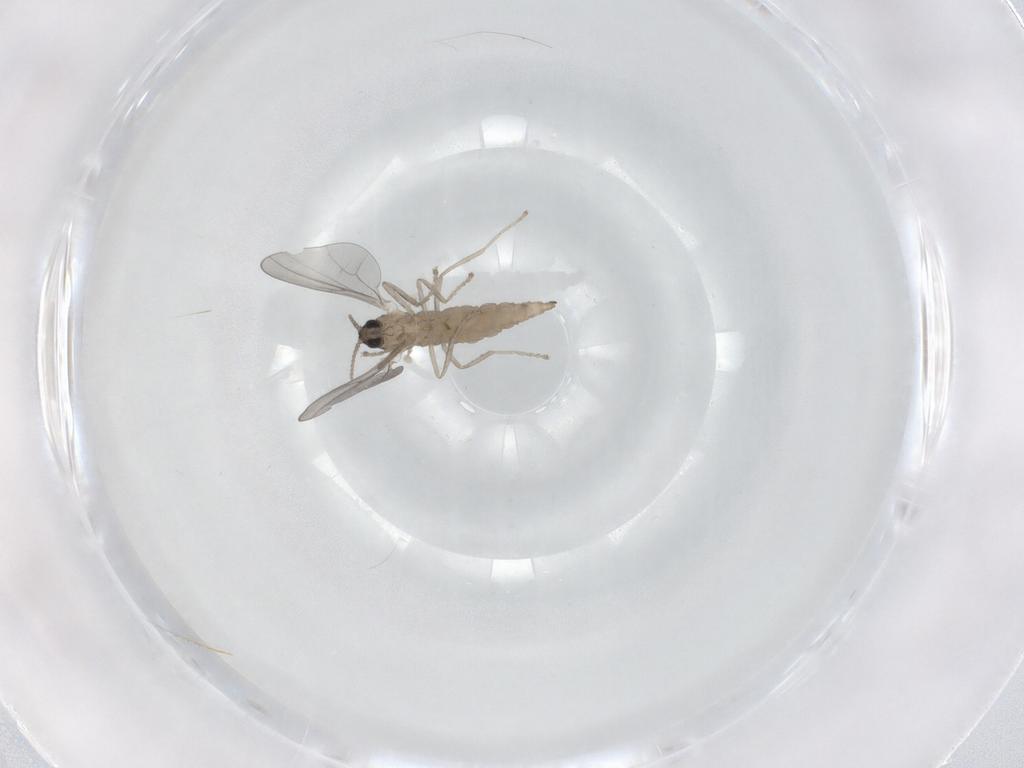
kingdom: Animalia
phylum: Arthropoda
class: Insecta
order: Diptera
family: Cecidomyiidae
